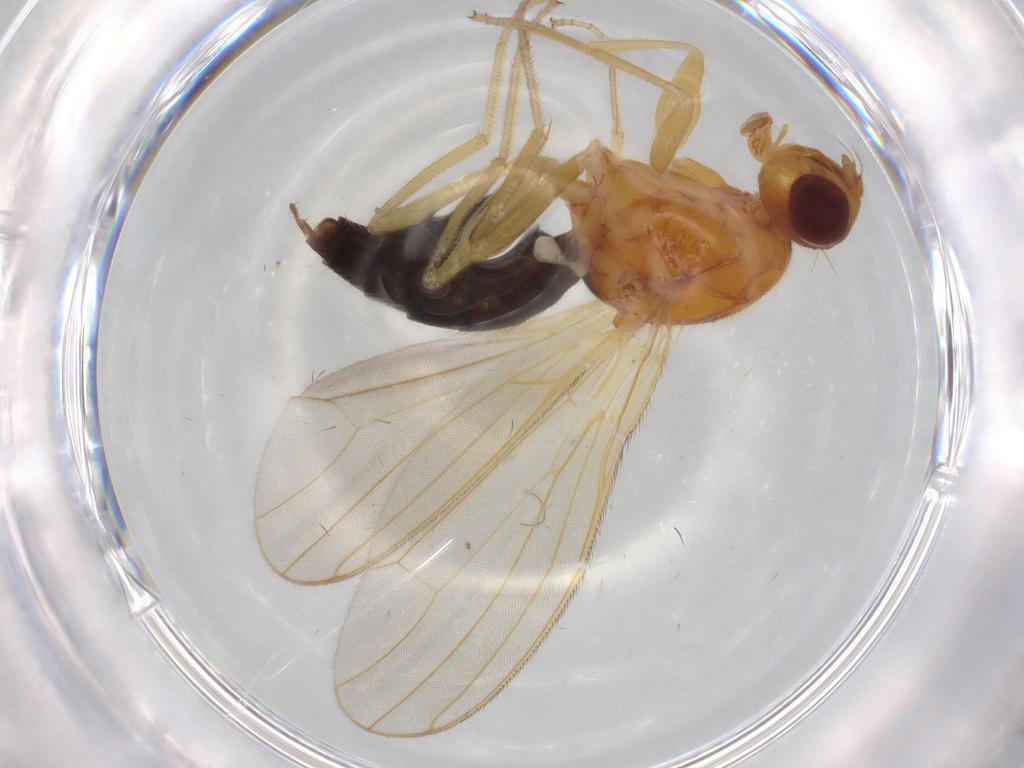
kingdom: Animalia
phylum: Arthropoda
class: Insecta
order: Diptera
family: Phoridae
